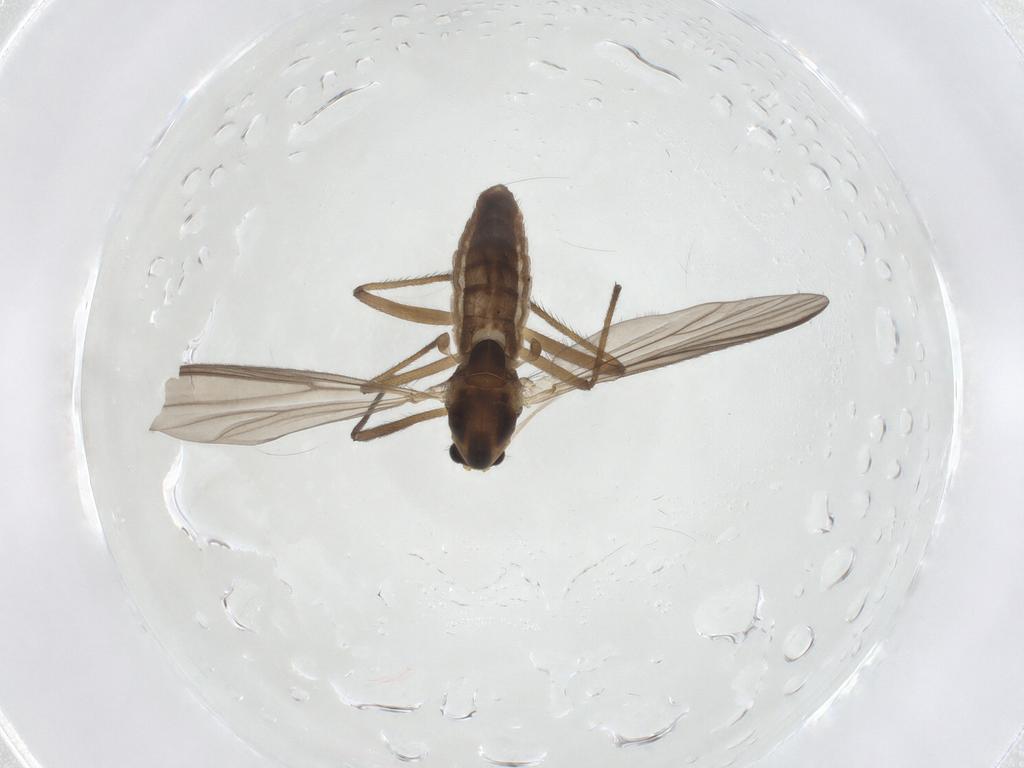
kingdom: Animalia
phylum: Arthropoda
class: Insecta
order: Diptera
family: Chironomidae
